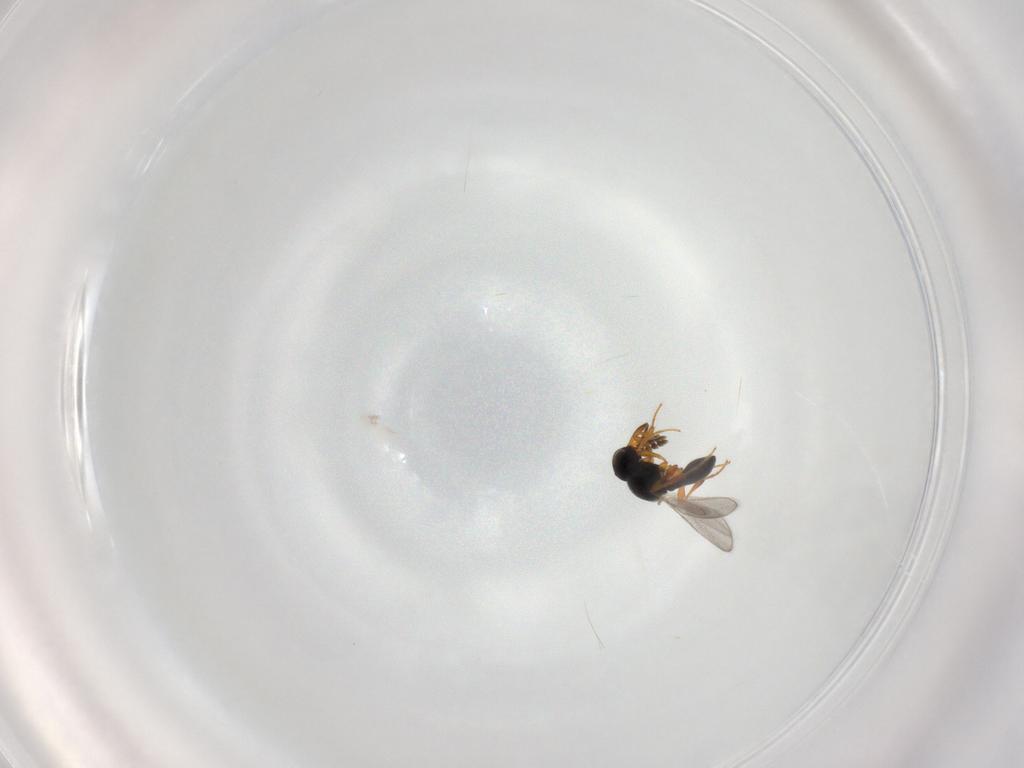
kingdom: Animalia
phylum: Arthropoda
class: Insecta
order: Hymenoptera
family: Platygastridae
